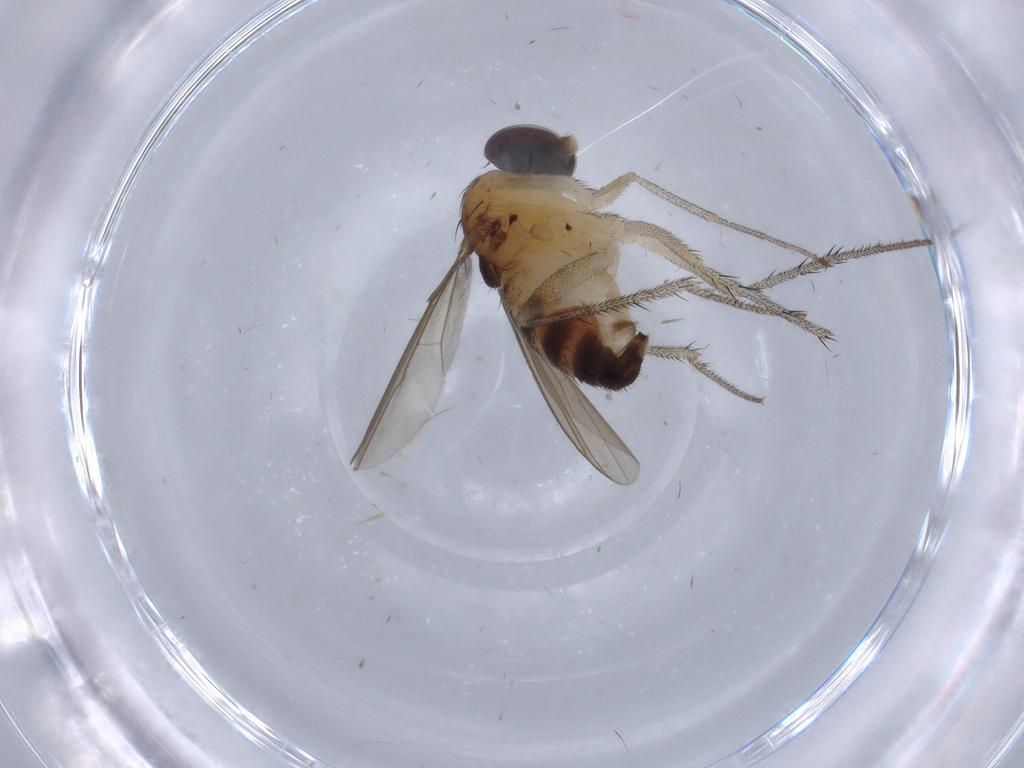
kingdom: Animalia
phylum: Arthropoda
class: Insecta
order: Diptera
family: Dolichopodidae
